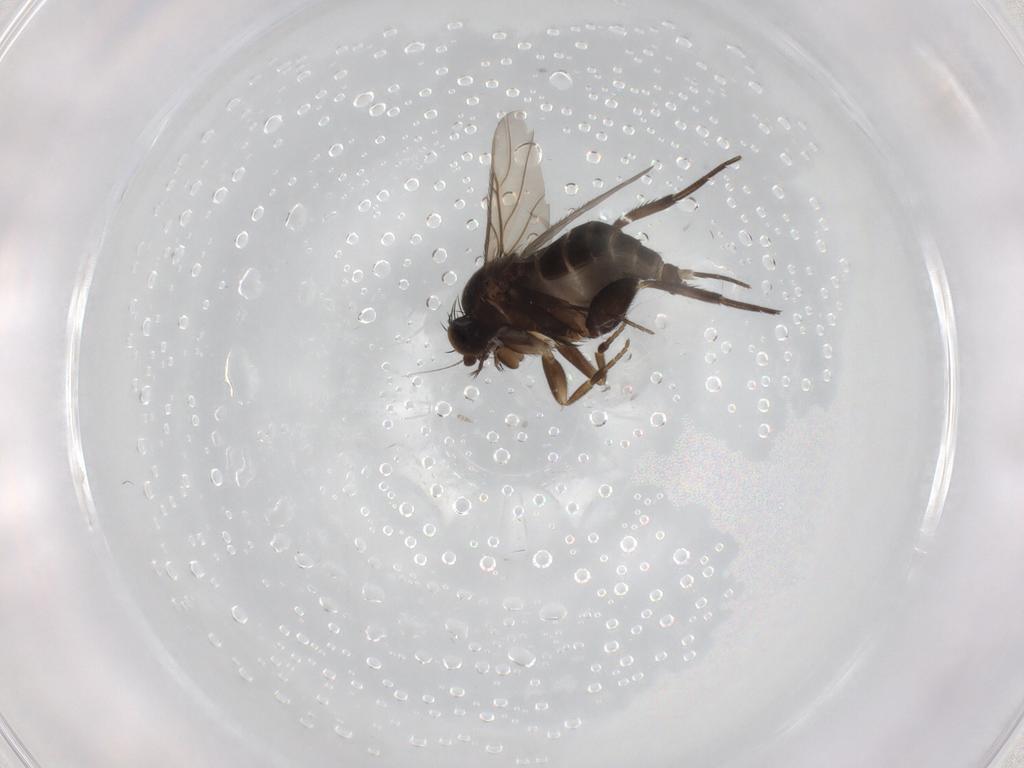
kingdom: Animalia
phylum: Arthropoda
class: Insecta
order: Diptera
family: Phoridae
